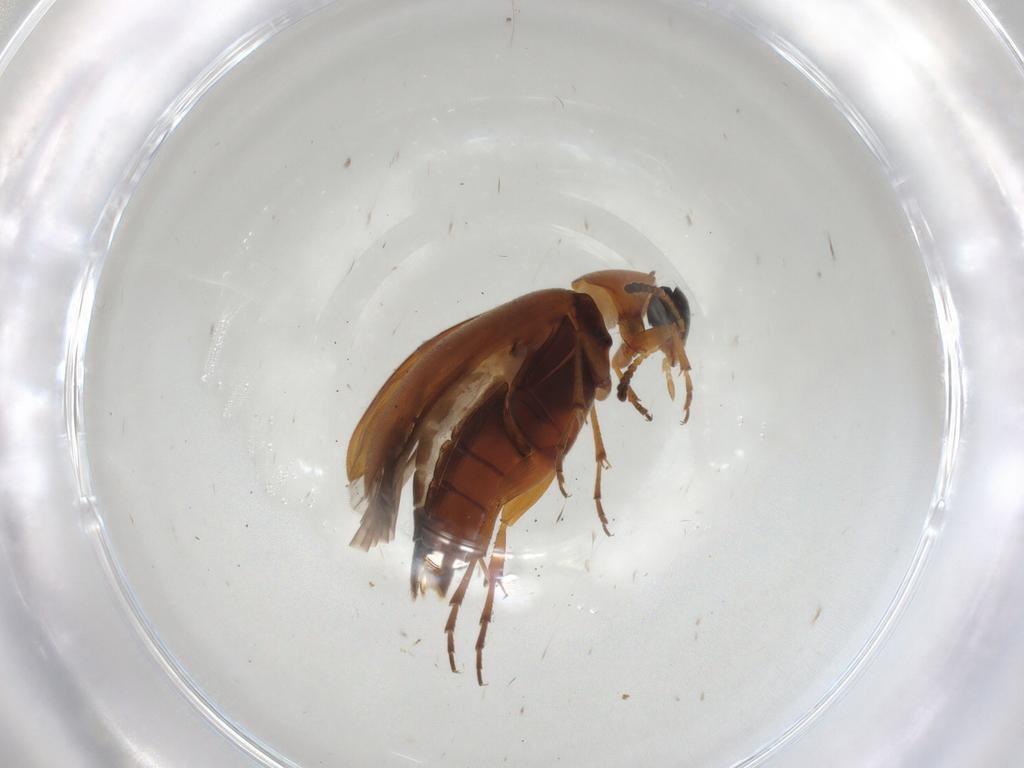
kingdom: Animalia
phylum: Arthropoda
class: Insecta
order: Coleoptera
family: Scraptiidae
